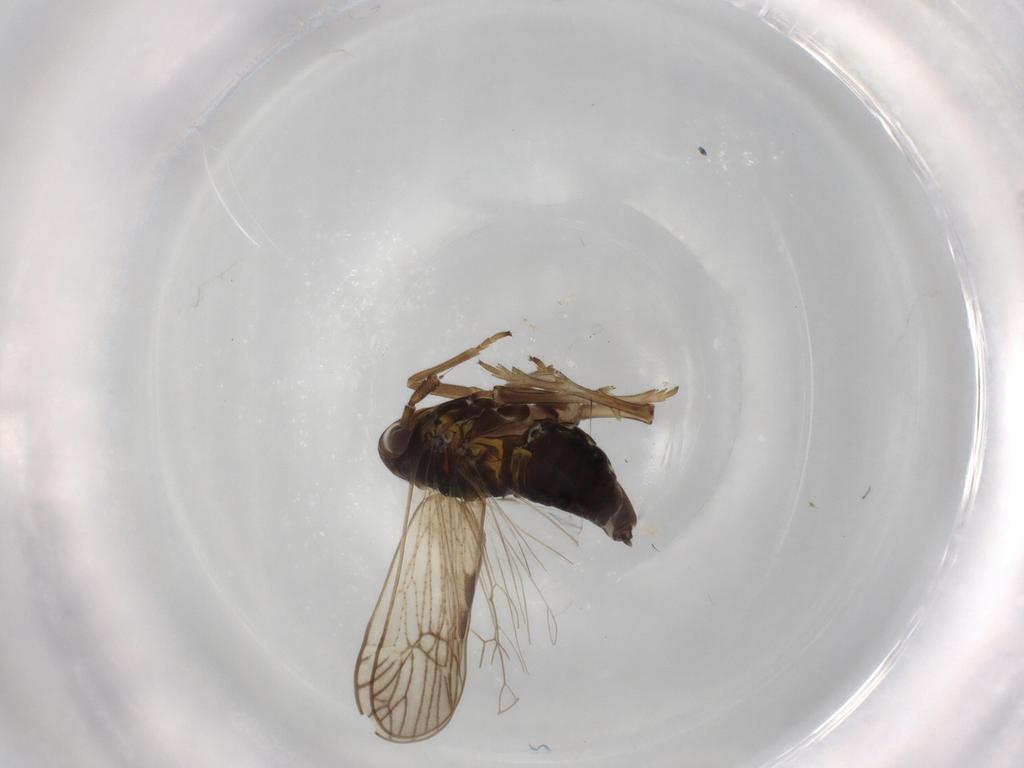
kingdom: Animalia
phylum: Arthropoda
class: Insecta
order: Hemiptera
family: Delphacidae
